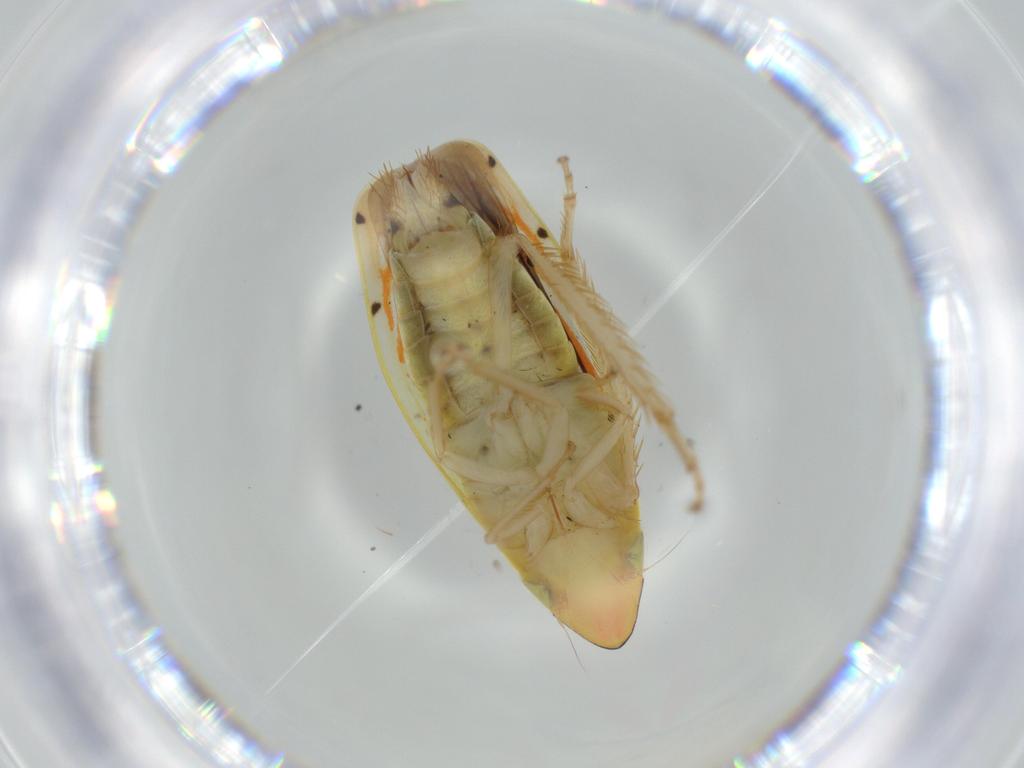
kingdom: Animalia
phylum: Arthropoda
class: Insecta
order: Hemiptera
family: Cicadellidae
